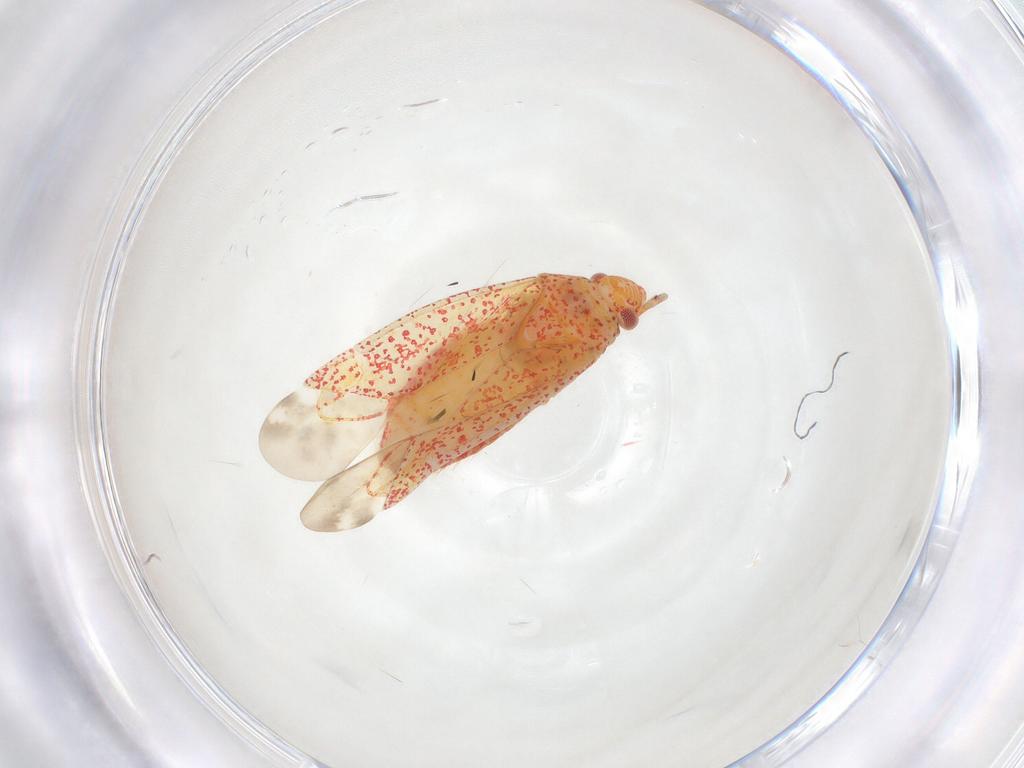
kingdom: Animalia
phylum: Arthropoda
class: Insecta
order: Hemiptera
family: Miridae
